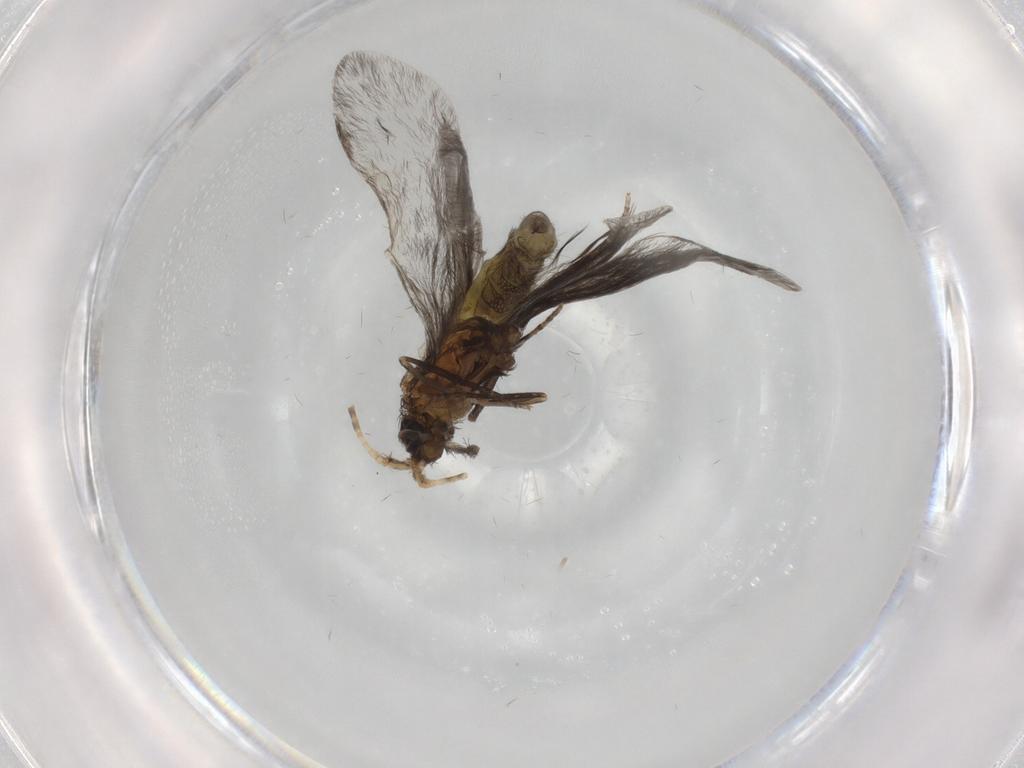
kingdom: Animalia
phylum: Arthropoda
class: Insecta
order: Trichoptera
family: Helicopsychidae
